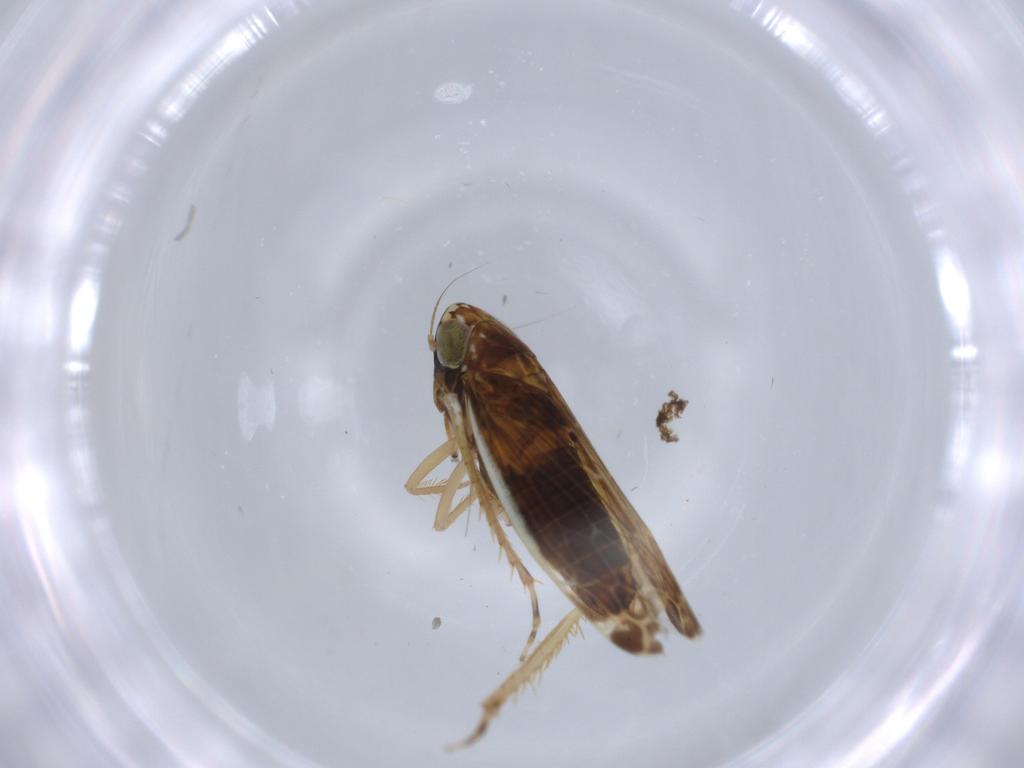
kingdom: Animalia
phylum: Arthropoda
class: Insecta
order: Hemiptera
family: Cicadellidae
